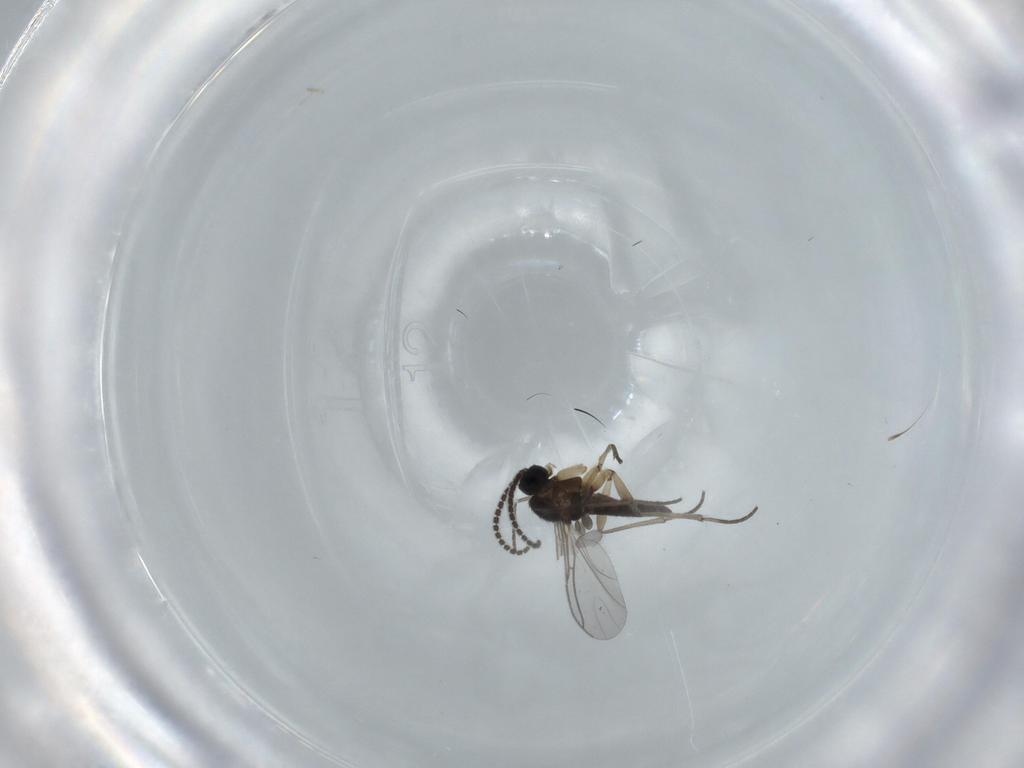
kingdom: Animalia
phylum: Arthropoda
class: Insecta
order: Diptera
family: Sciaridae
